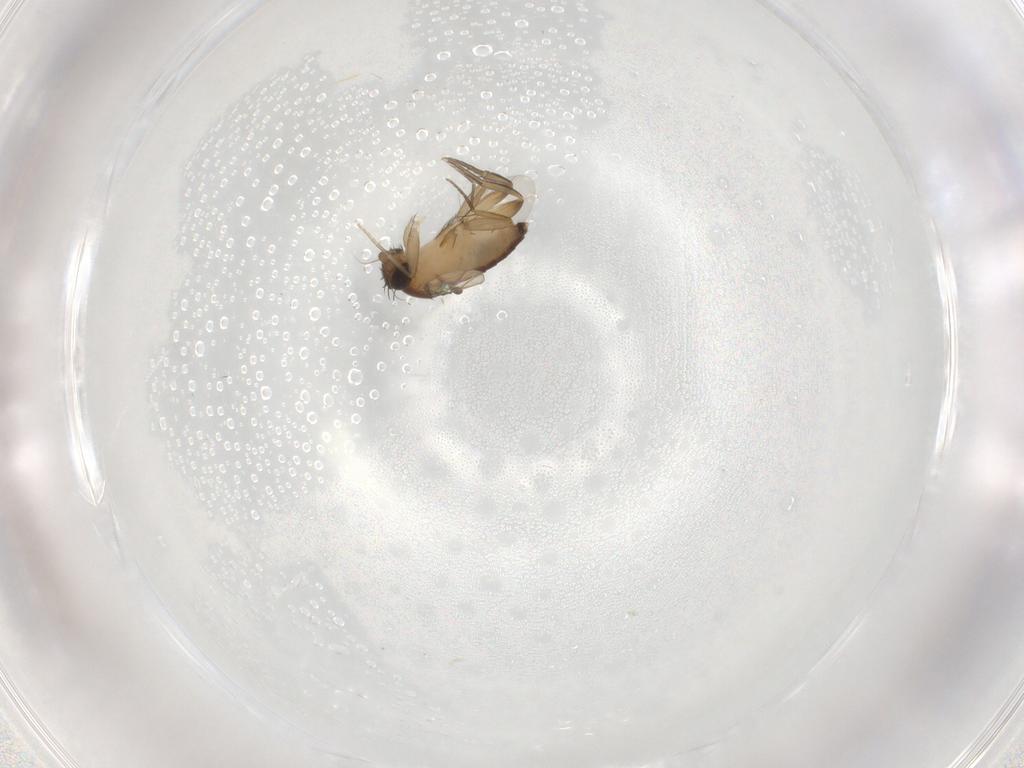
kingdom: Animalia
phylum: Arthropoda
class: Insecta
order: Diptera
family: Phoridae
